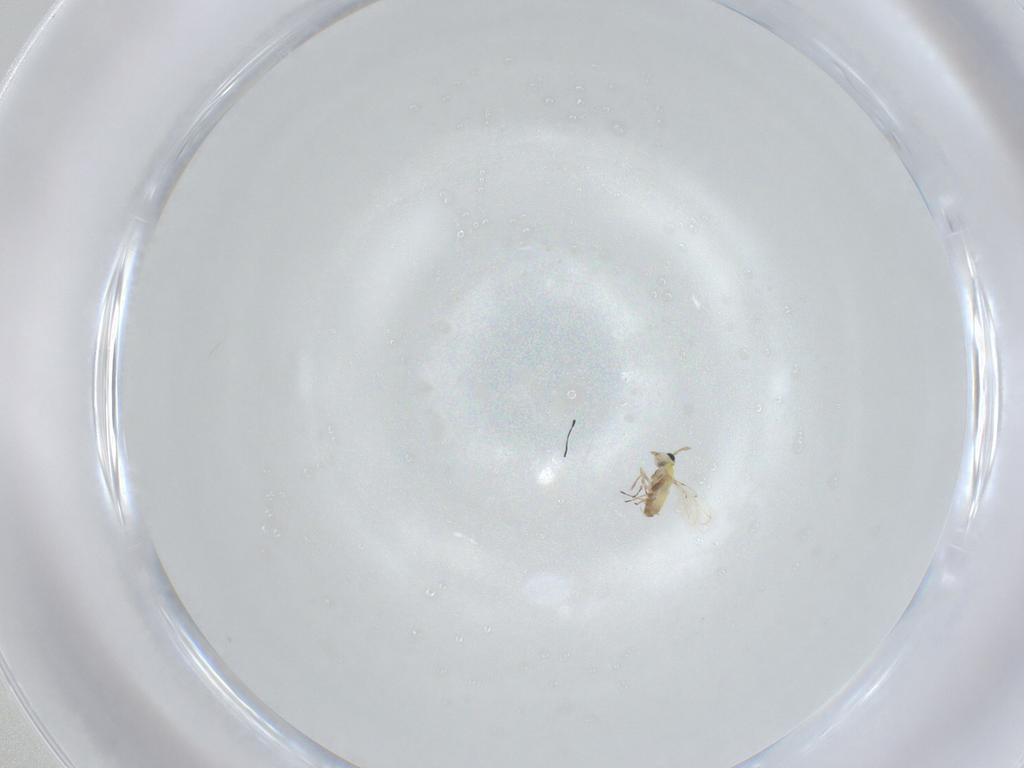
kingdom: Animalia
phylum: Arthropoda
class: Insecta
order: Hymenoptera
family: Trichogrammatidae
